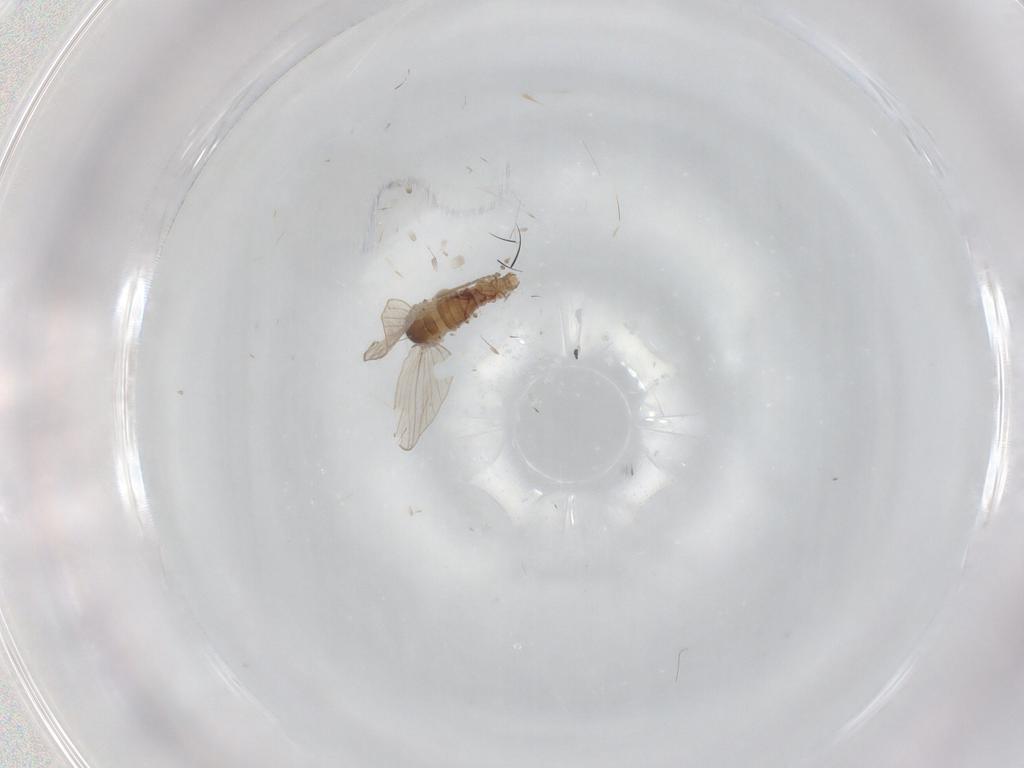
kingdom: Animalia
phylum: Arthropoda
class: Insecta
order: Diptera
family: Psychodidae
